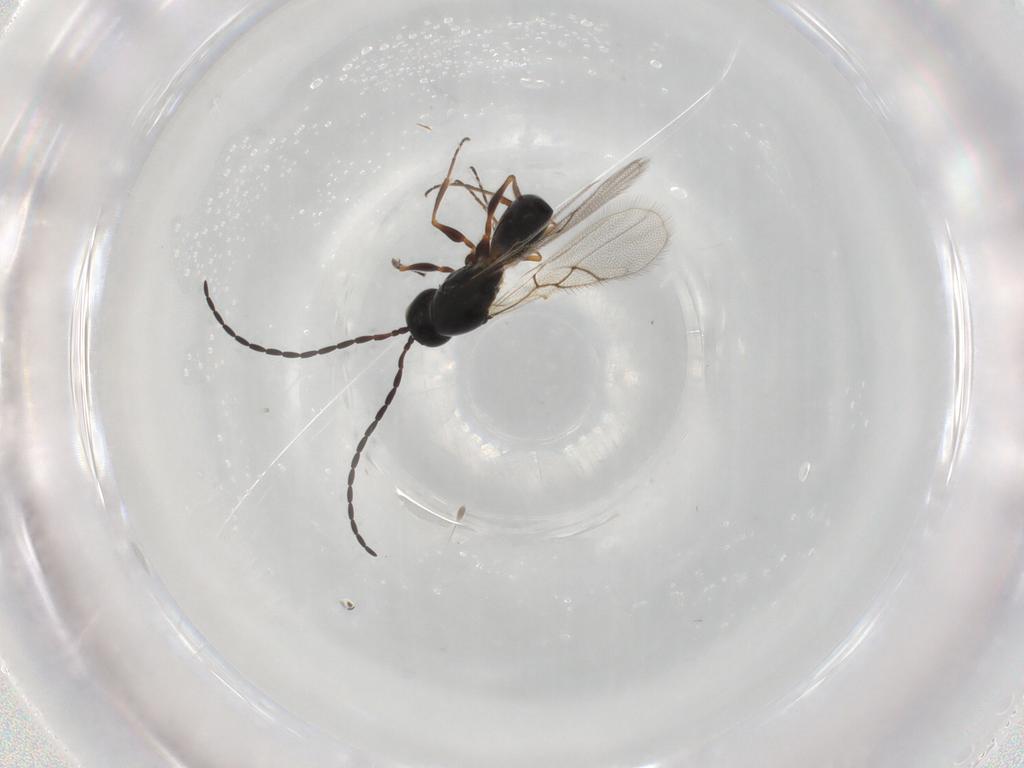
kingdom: Animalia
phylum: Arthropoda
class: Insecta
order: Hymenoptera
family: Figitidae
